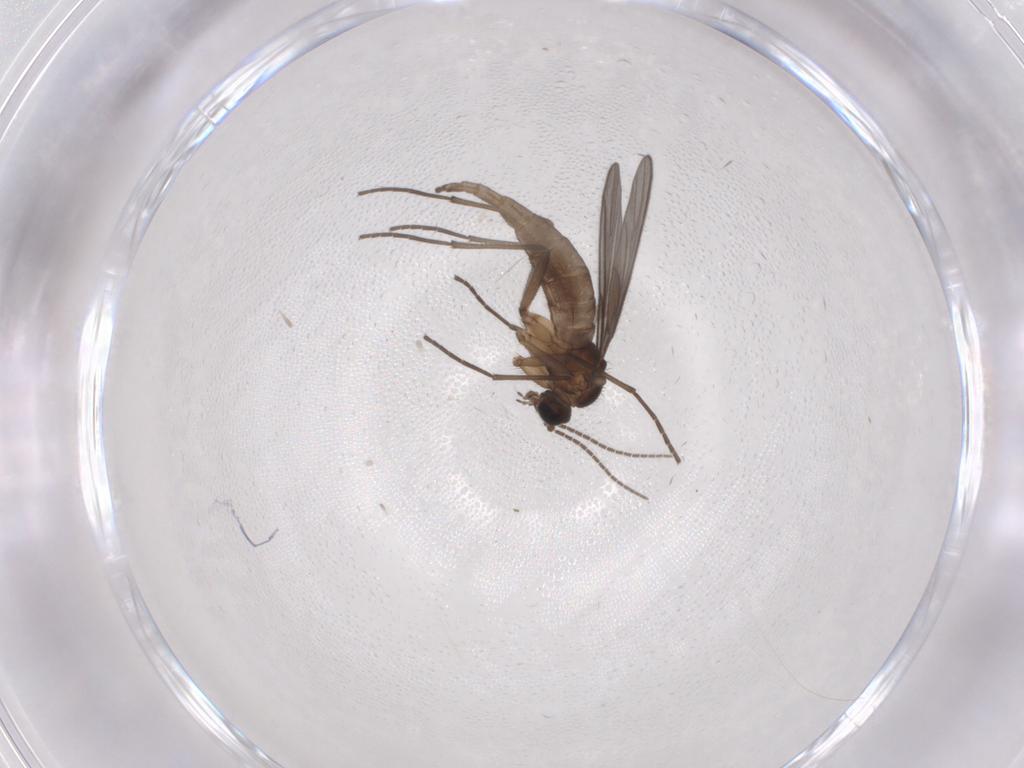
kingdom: Animalia
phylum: Arthropoda
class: Insecta
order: Diptera
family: Sciaridae
